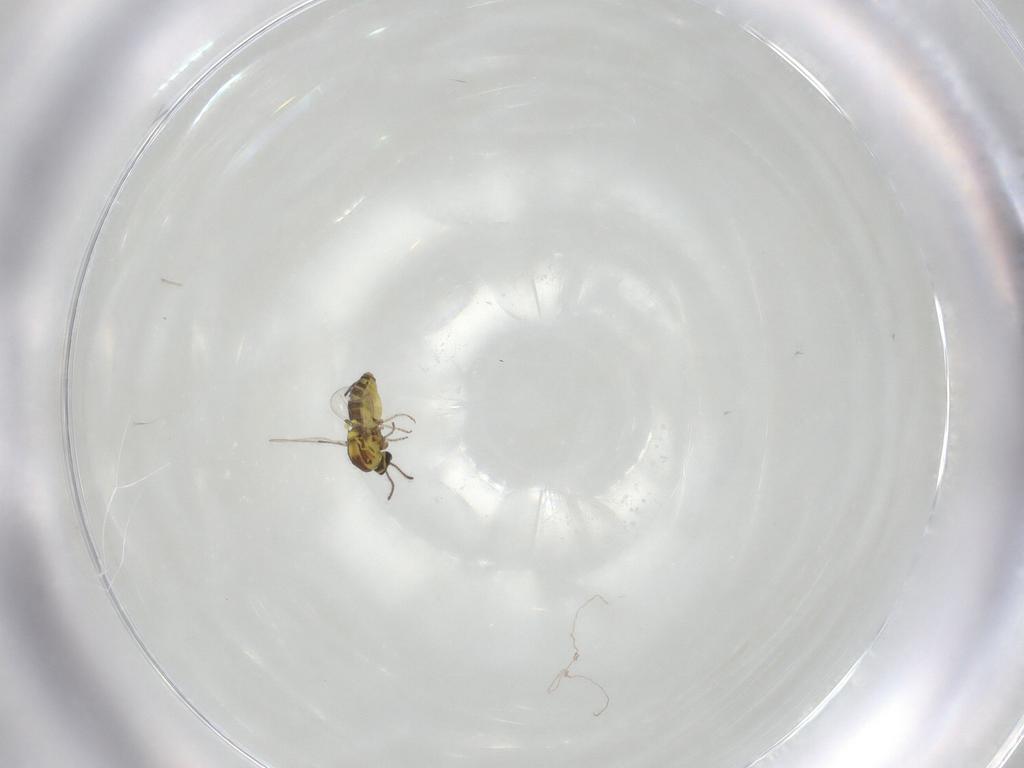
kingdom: Animalia
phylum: Arthropoda
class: Insecta
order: Diptera
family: Ceratopogonidae
